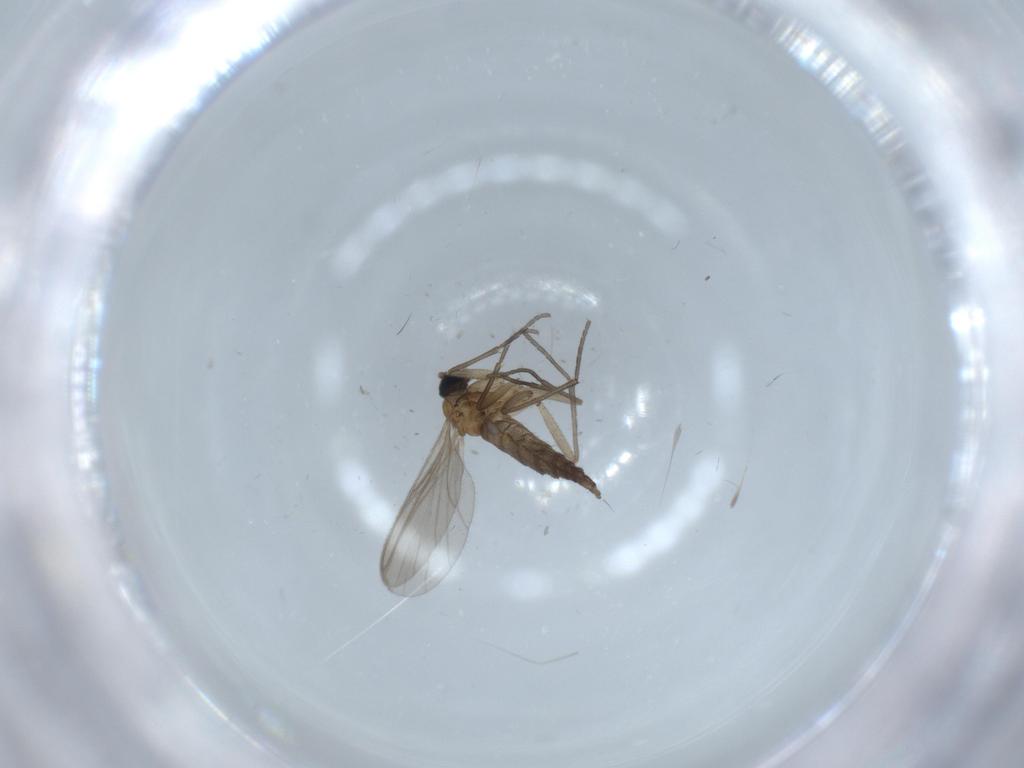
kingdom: Animalia
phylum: Arthropoda
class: Insecta
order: Diptera
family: Sciaridae
